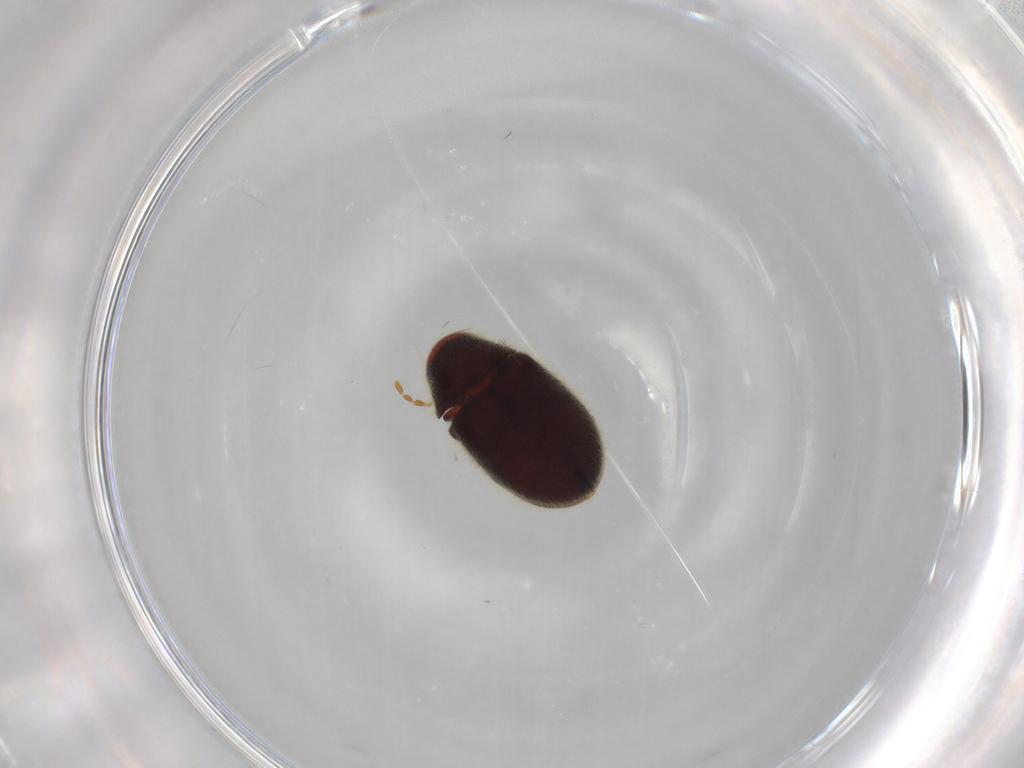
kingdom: Animalia
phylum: Arthropoda
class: Insecta
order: Coleoptera
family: Ptinidae
